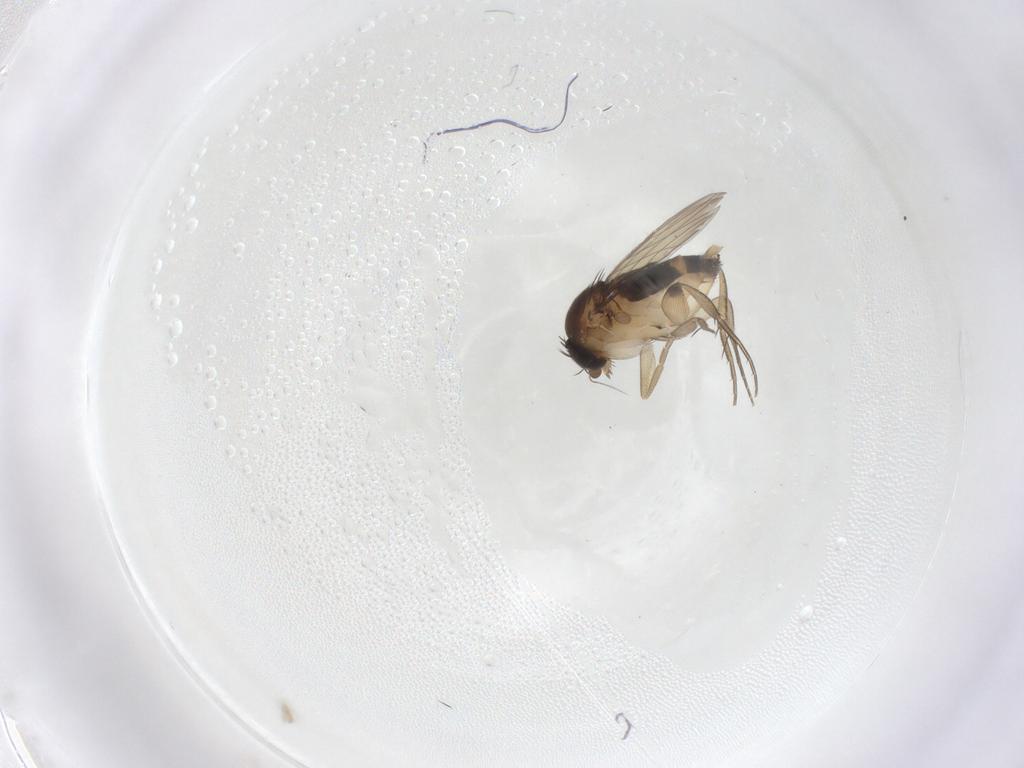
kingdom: Animalia
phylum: Arthropoda
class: Insecta
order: Diptera
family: Phoridae
